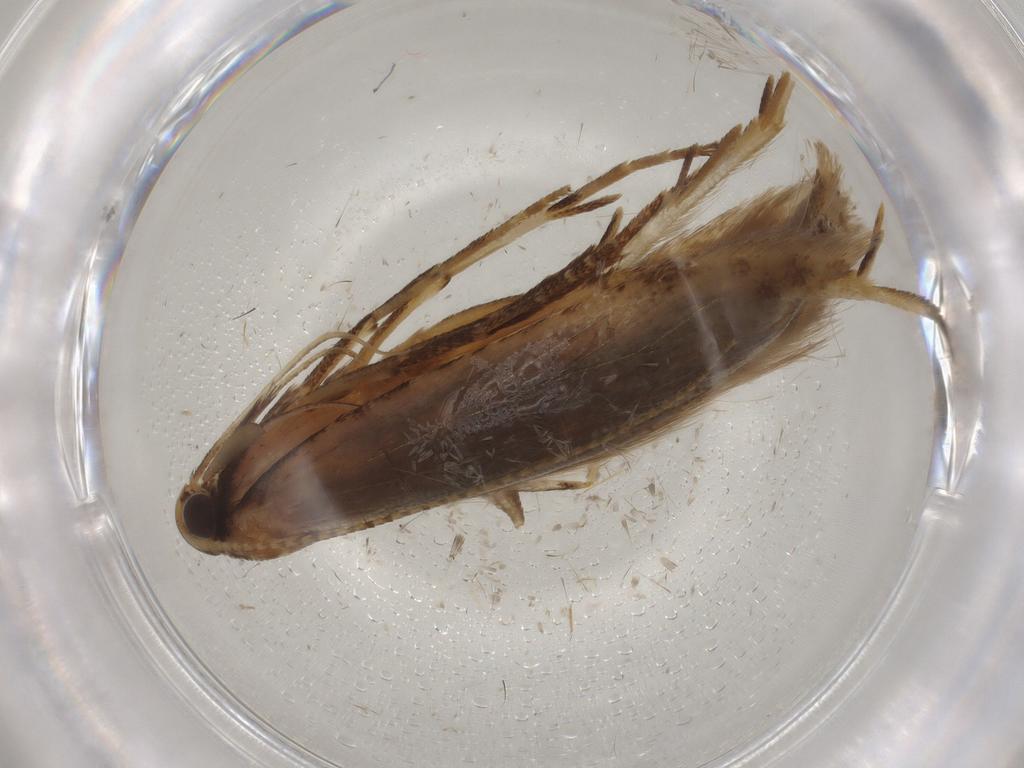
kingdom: Animalia
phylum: Arthropoda
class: Insecta
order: Lepidoptera
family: Gelechiidae
